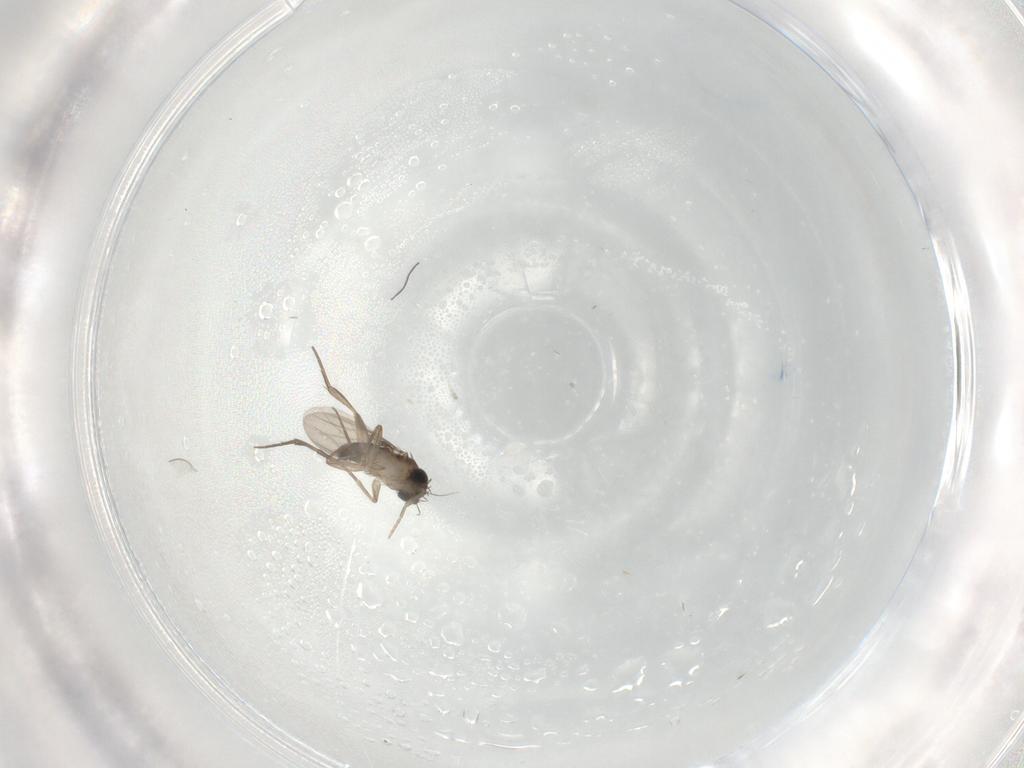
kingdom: Animalia
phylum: Arthropoda
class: Insecta
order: Diptera
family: Phoridae
